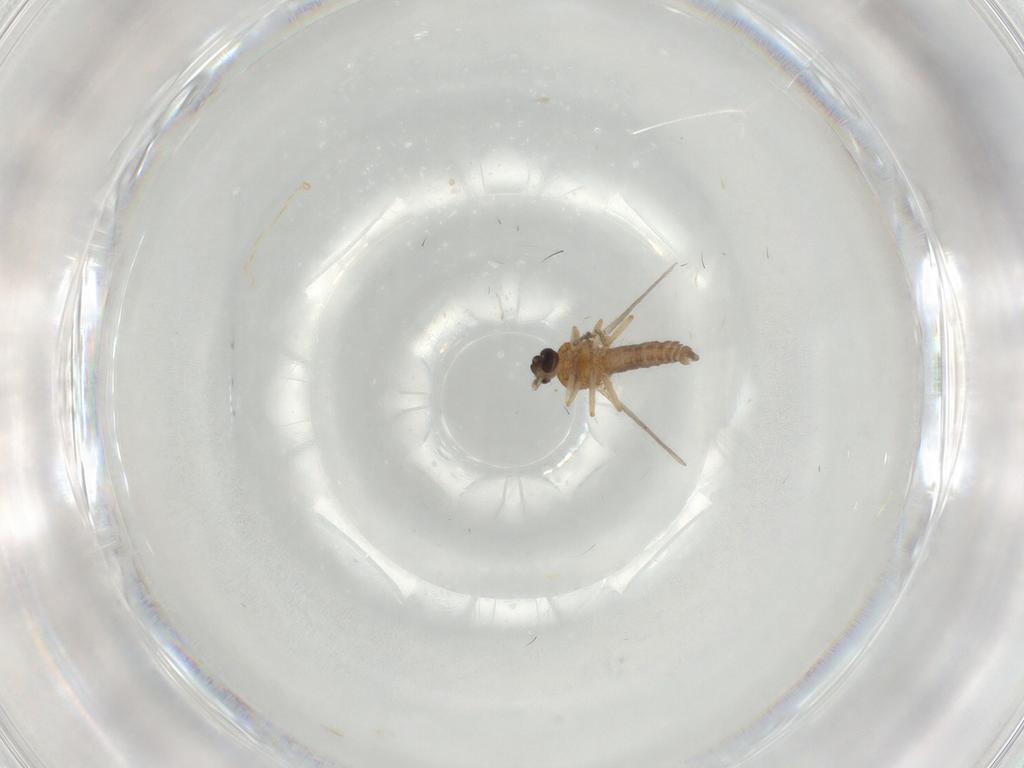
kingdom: Animalia
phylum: Arthropoda
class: Insecta
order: Diptera
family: Ceratopogonidae
